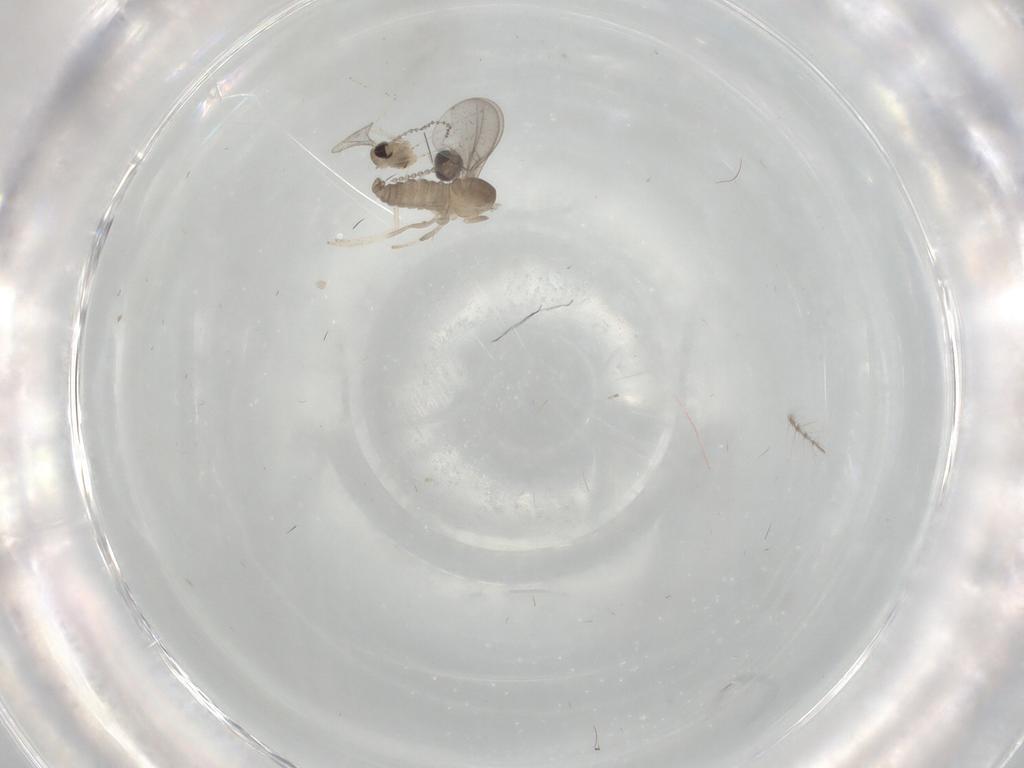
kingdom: Animalia
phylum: Arthropoda
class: Insecta
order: Diptera
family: Cecidomyiidae
